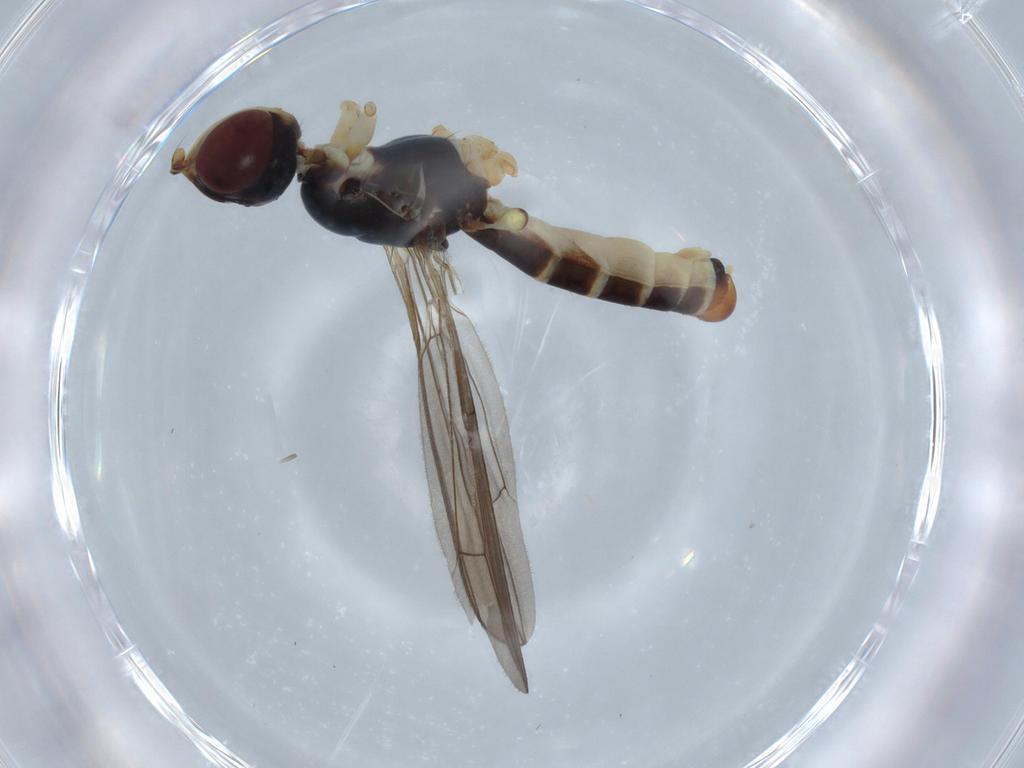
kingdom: Animalia
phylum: Arthropoda
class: Insecta
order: Diptera
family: Micropezidae
